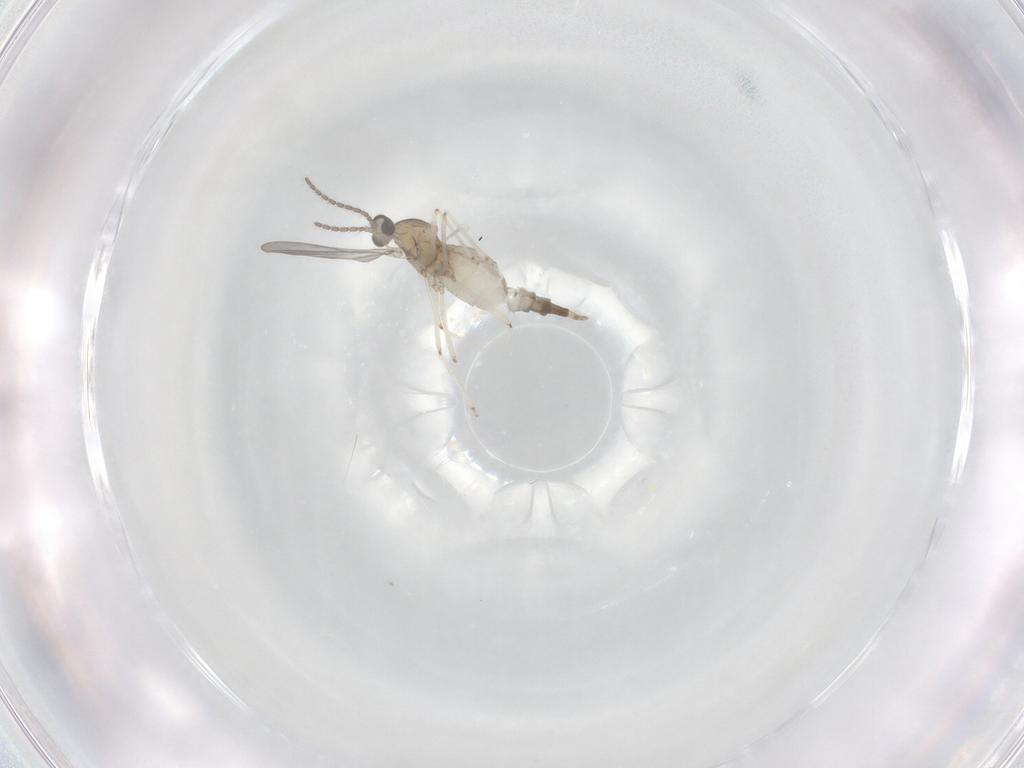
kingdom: Animalia
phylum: Arthropoda
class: Insecta
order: Diptera
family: Cecidomyiidae
